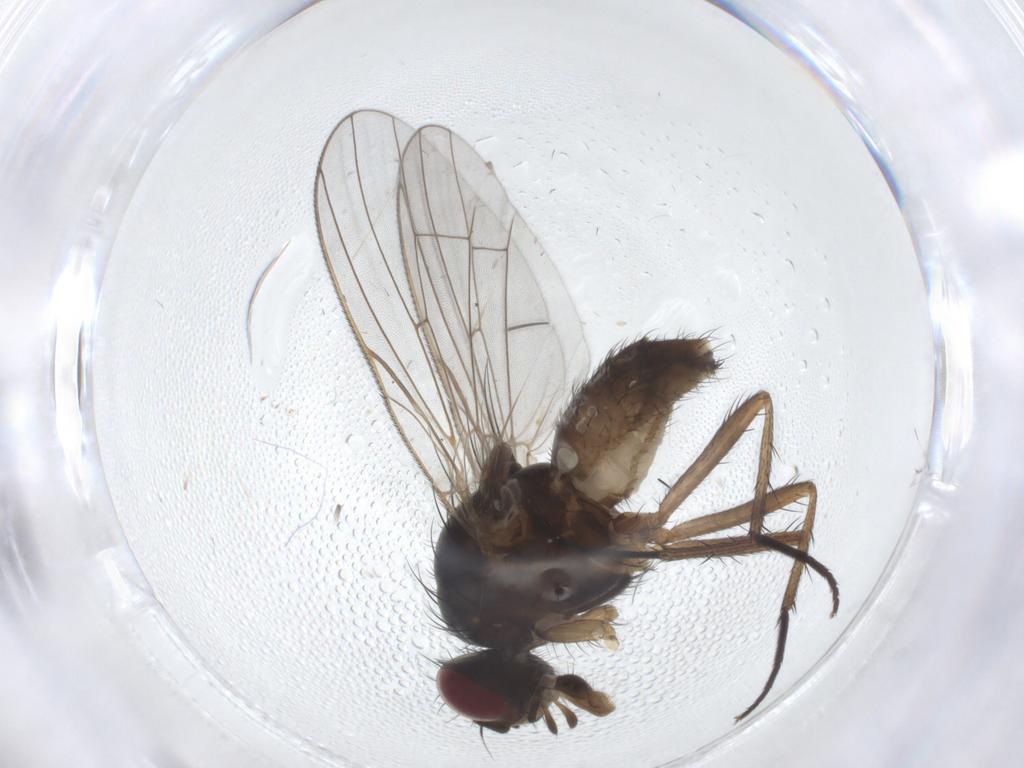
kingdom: Animalia
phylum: Arthropoda
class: Insecta
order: Diptera
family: Anthomyiidae
